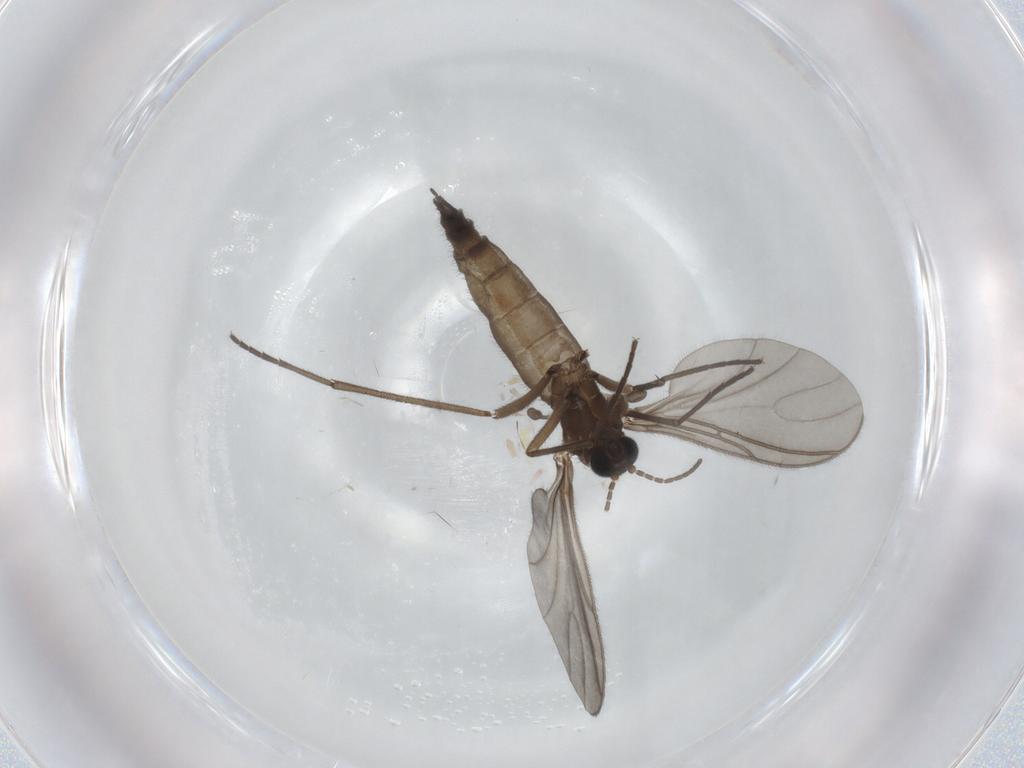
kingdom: Animalia
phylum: Arthropoda
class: Insecta
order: Diptera
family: Sciaridae
